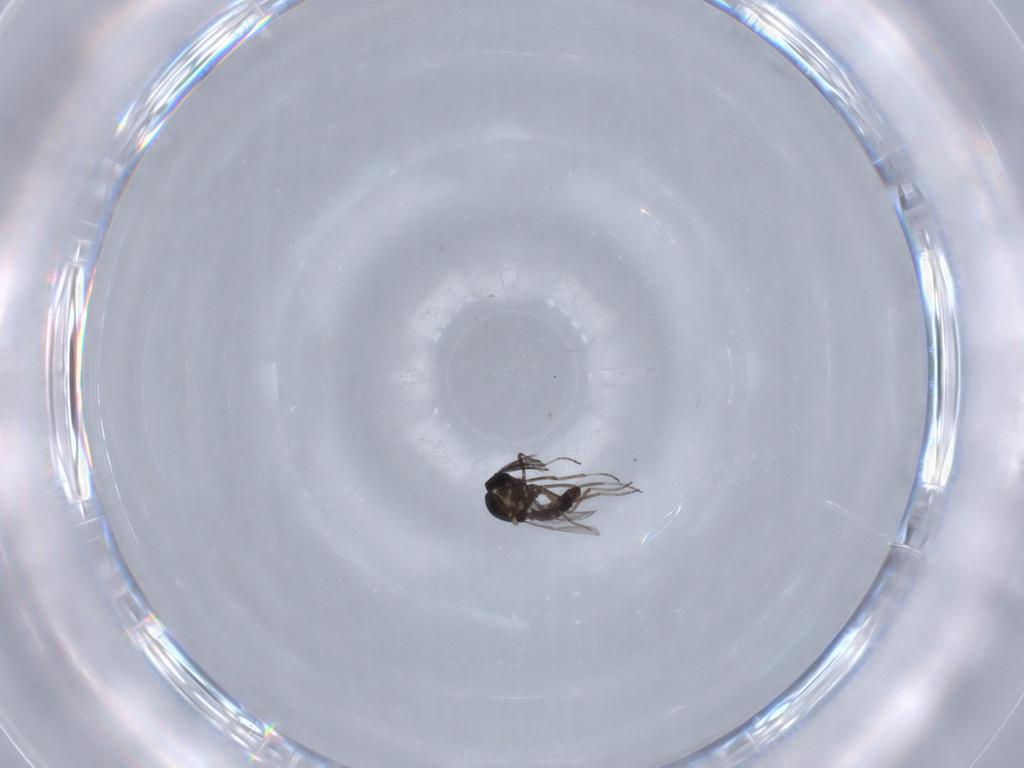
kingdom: Animalia
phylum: Arthropoda
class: Insecta
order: Diptera
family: Ceratopogonidae
